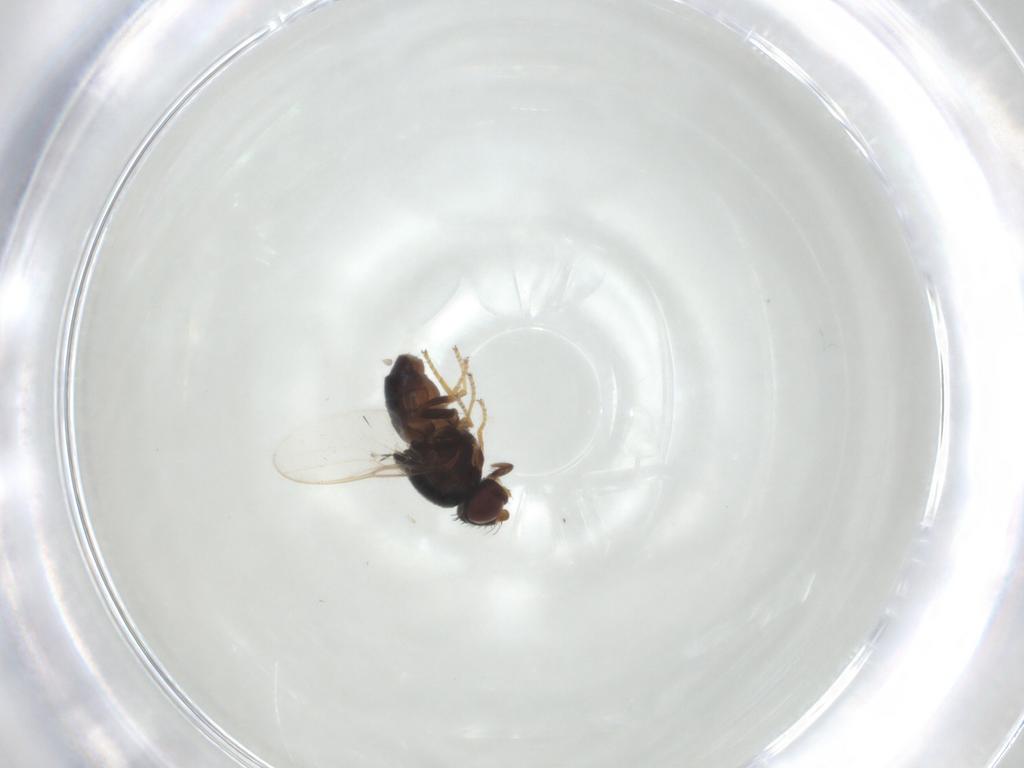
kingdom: Animalia
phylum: Arthropoda
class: Insecta
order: Diptera
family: Chloropidae
